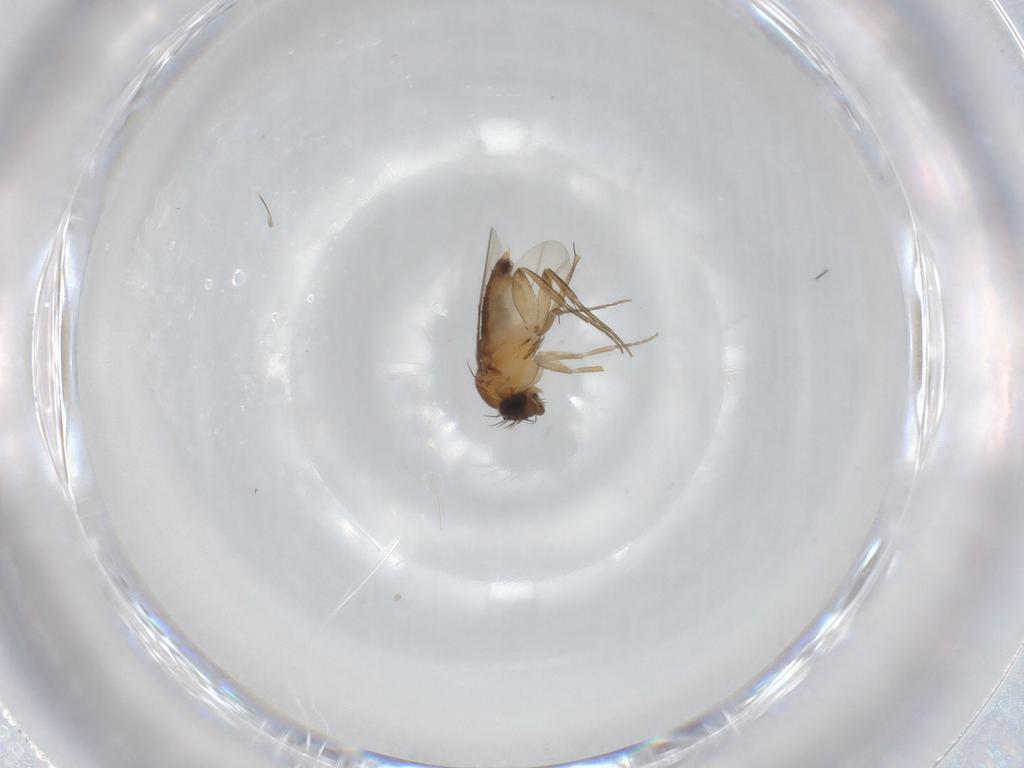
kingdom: Animalia
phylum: Arthropoda
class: Insecta
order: Diptera
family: Phoridae
